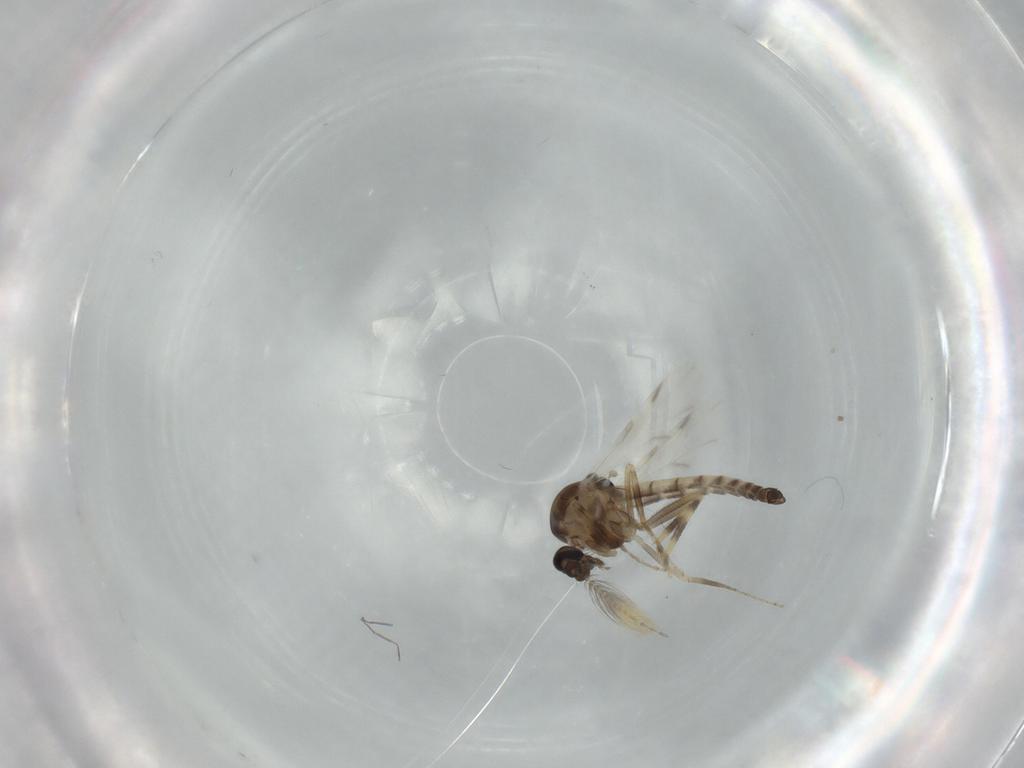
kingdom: Animalia
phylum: Arthropoda
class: Insecta
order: Diptera
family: Ceratopogonidae
